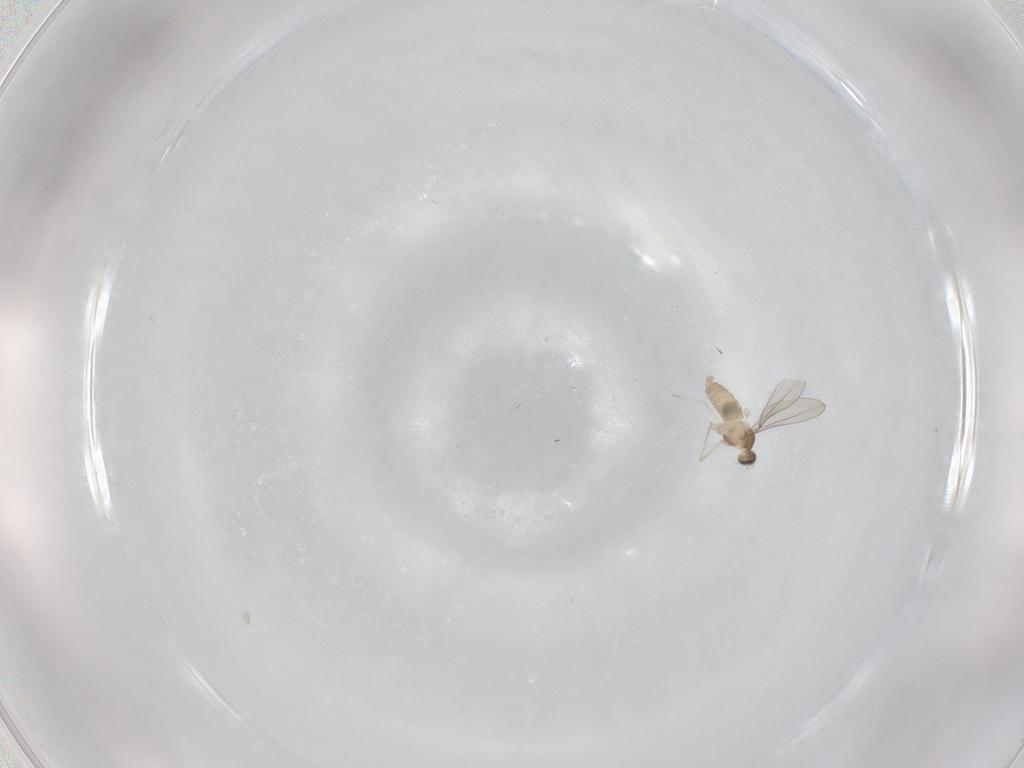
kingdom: Animalia
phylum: Arthropoda
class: Insecta
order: Diptera
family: Cecidomyiidae
